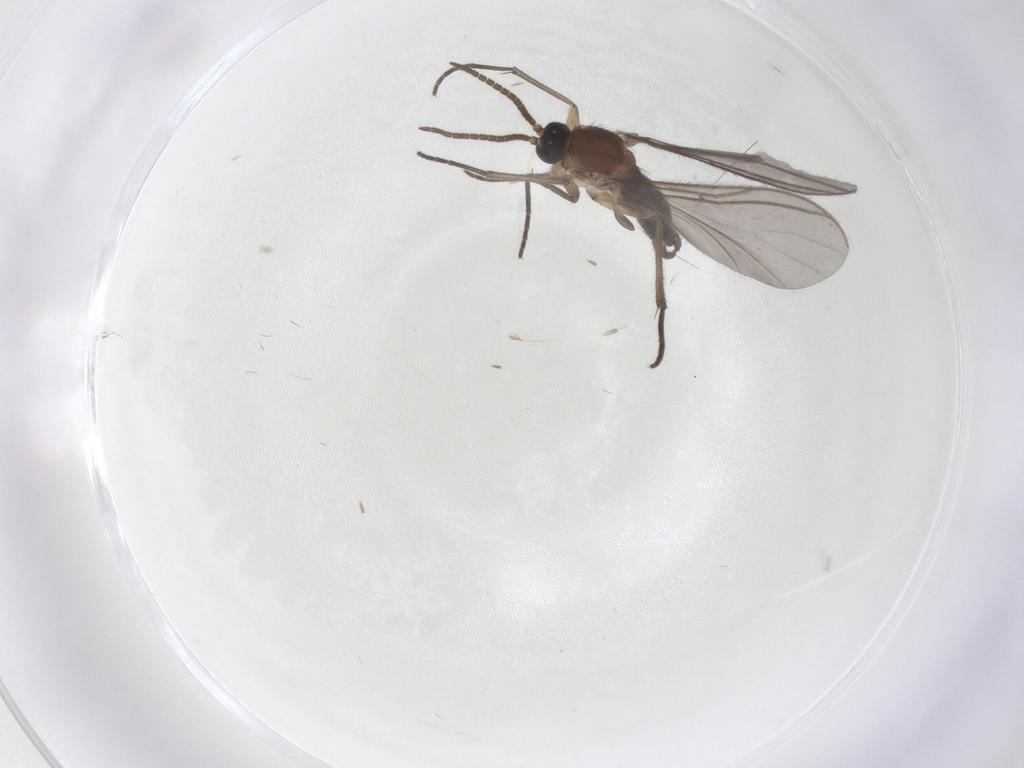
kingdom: Animalia
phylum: Arthropoda
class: Insecta
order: Diptera
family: Sciaridae
